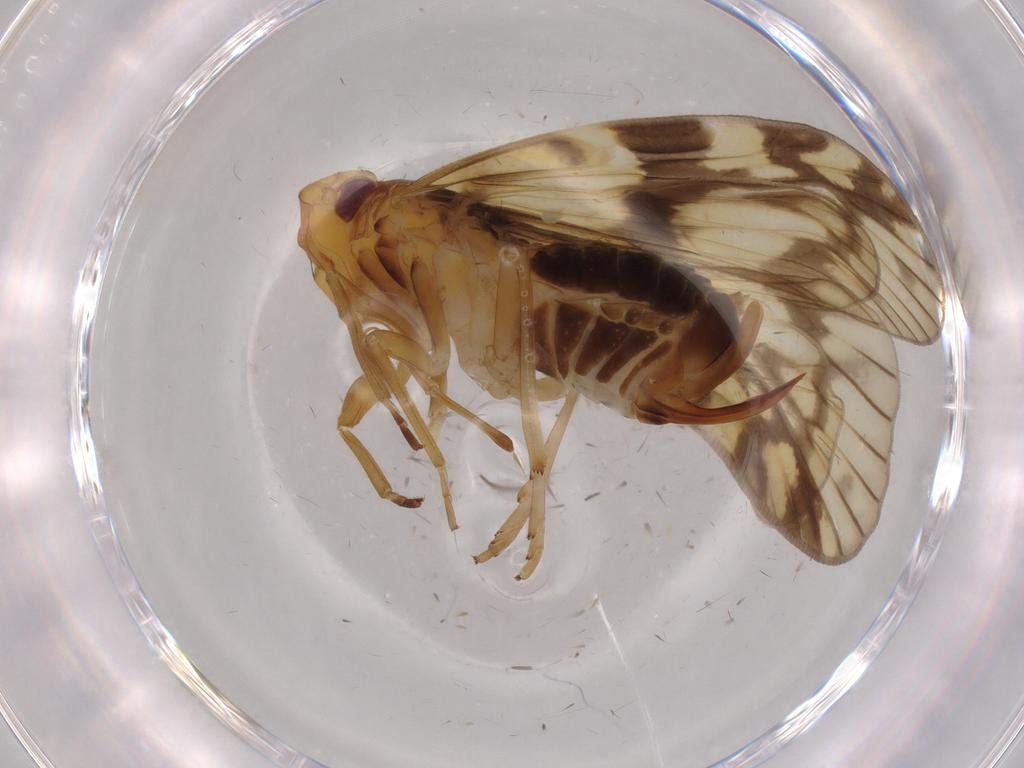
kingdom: Animalia
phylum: Arthropoda
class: Insecta
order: Hemiptera
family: Cixiidae
